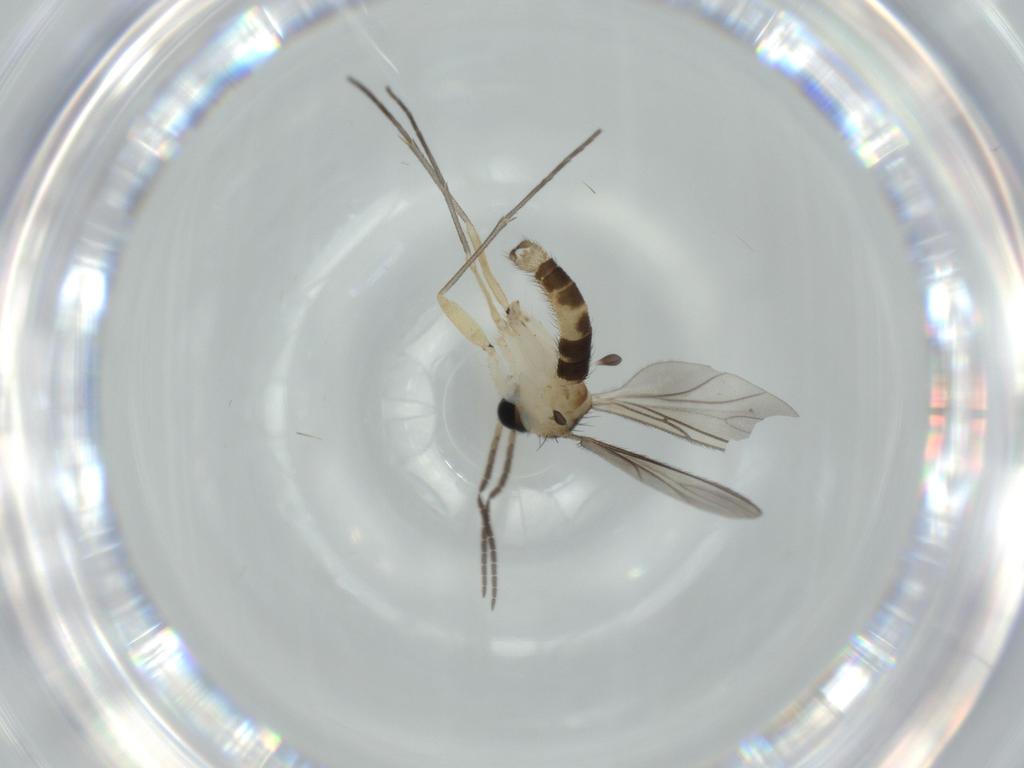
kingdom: Animalia
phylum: Arthropoda
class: Insecta
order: Diptera
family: Sciaridae
